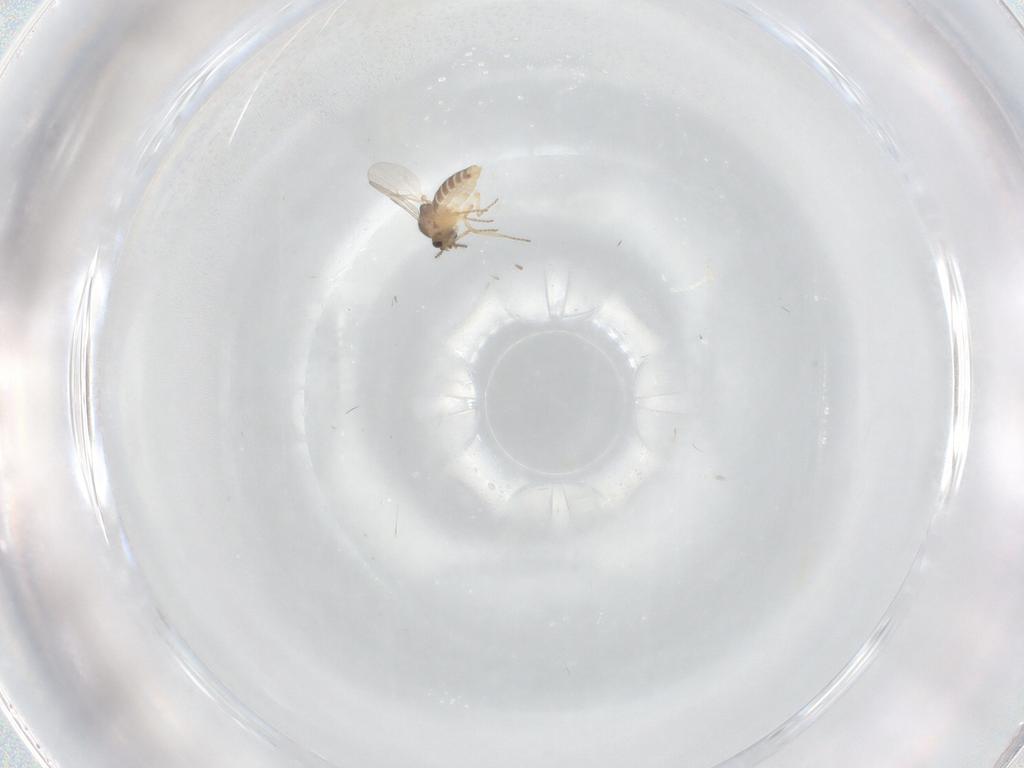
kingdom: Animalia
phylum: Arthropoda
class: Insecta
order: Diptera
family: Ceratopogonidae
